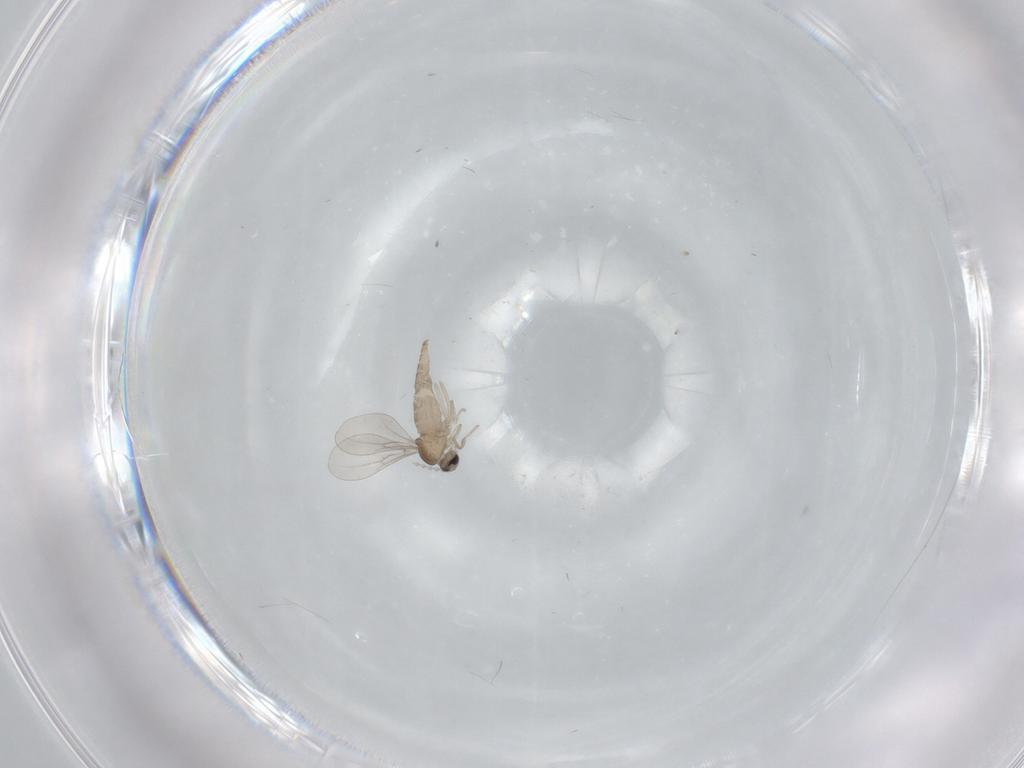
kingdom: Animalia
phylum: Arthropoda
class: Insecta
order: Diptera
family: Cecidomyiidae
